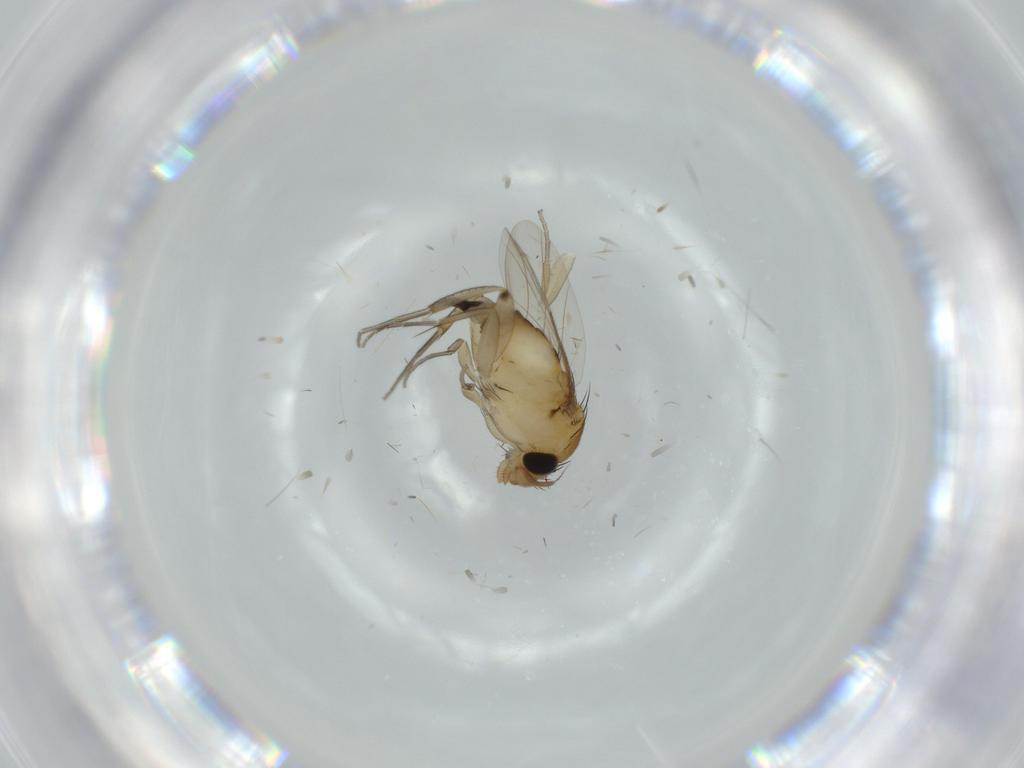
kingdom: Animalia
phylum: Arthropoda
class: Insecta
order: Diptera
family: Phoridae
